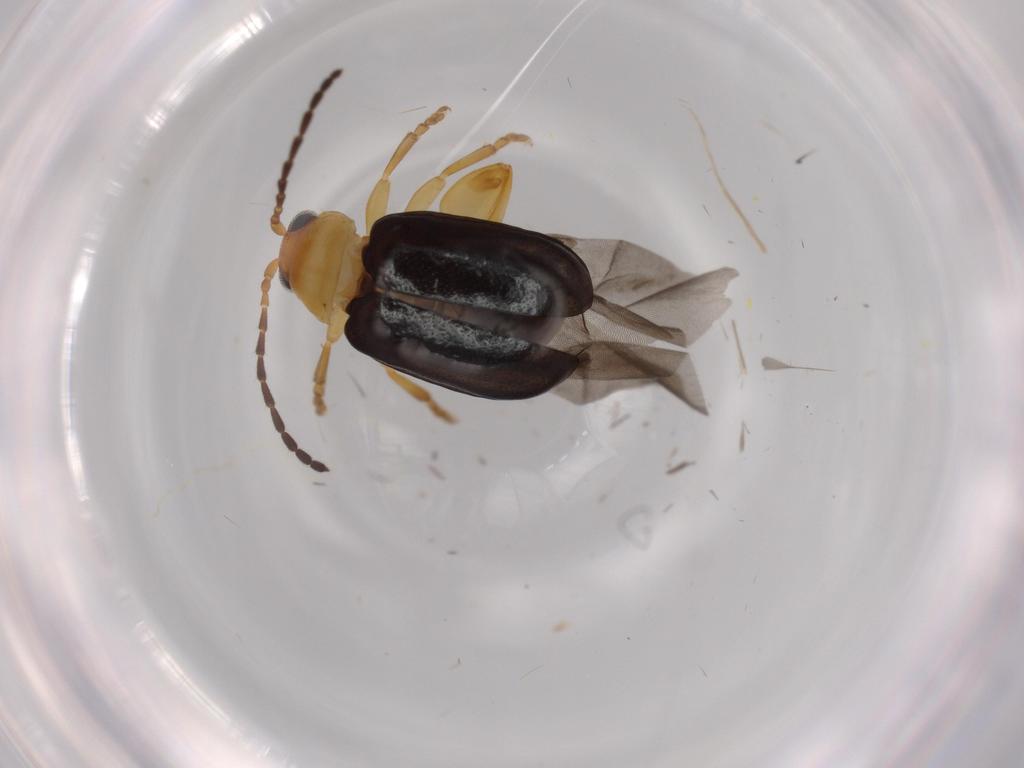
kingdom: Animalia
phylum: Arthropoda
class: Insecta
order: Coleoptera
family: Chrysomelidae
